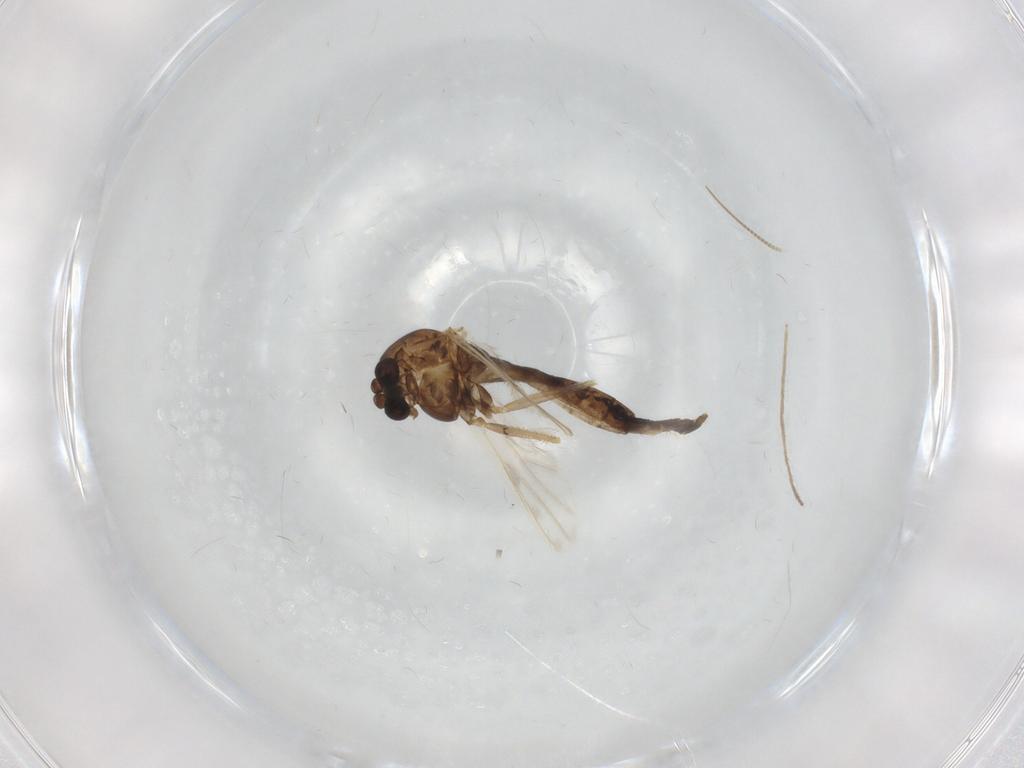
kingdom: Animalia
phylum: Arthropoda
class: Insecta
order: Diptera
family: Chironomidae
